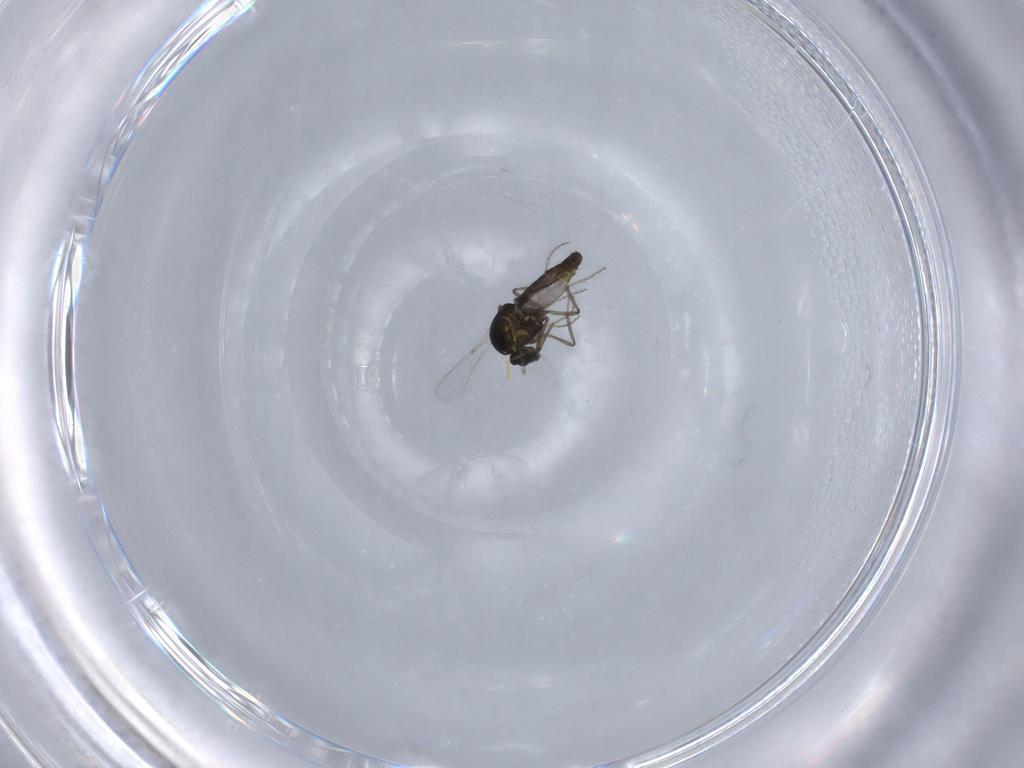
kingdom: Animalia
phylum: Arthropoda
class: Insecta
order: Diptera
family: Ceratopogonidae
